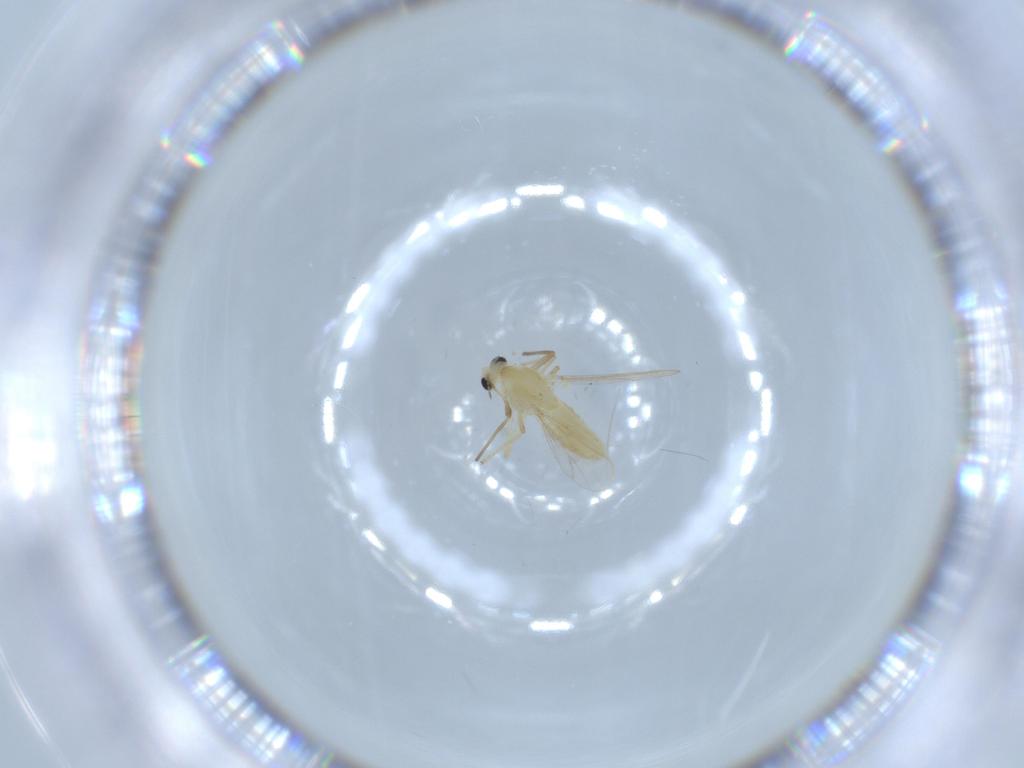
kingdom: Animalia
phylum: Arthropoda
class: Insecta
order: Diptera
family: Chironomidae
